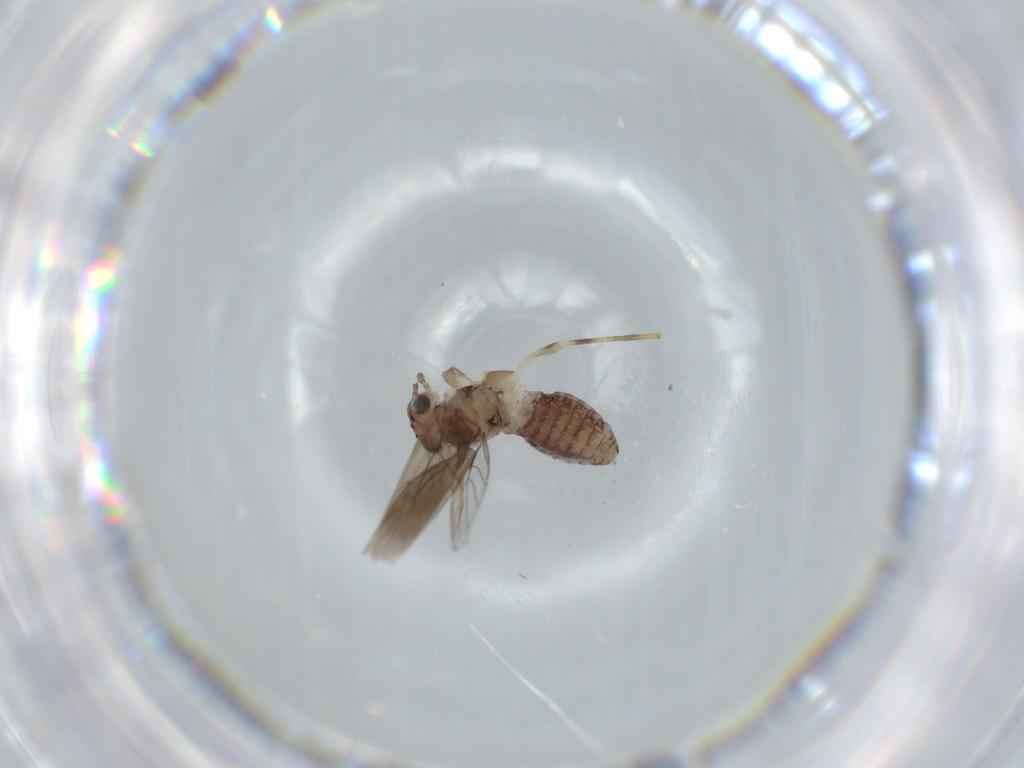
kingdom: Animalia
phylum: Arthropoda
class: Insecta
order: Psocodea
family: Lepidopsocidae
